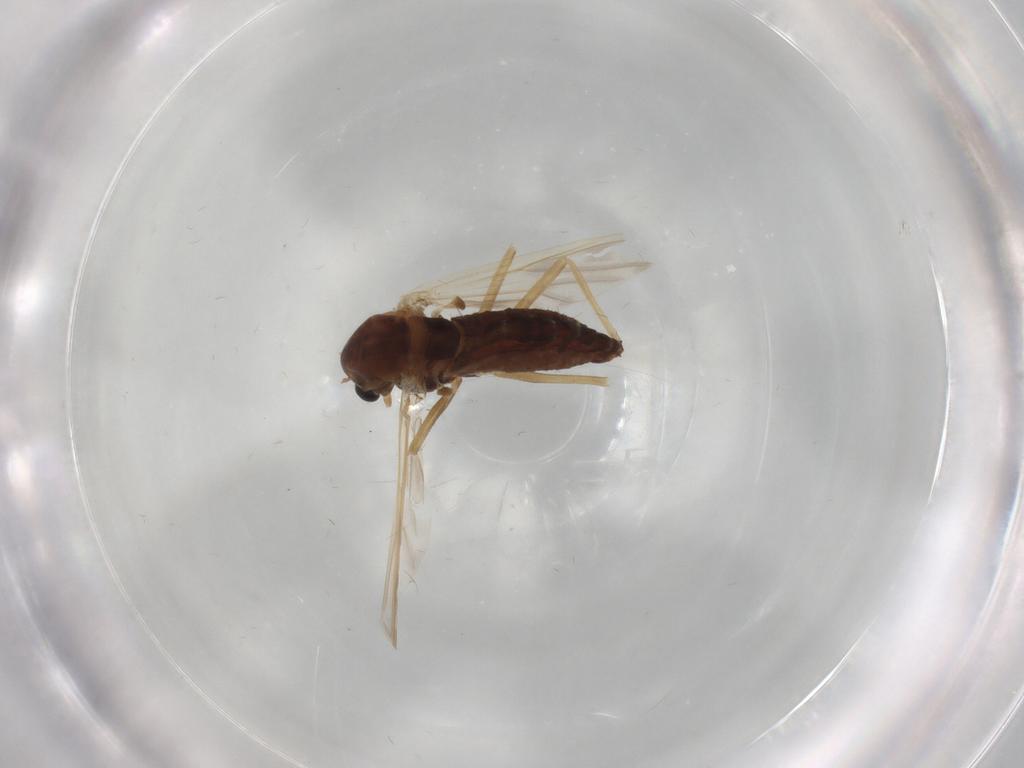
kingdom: Animalia
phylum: Arthropoda
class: Insecta
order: Diptera
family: Chironomidae
